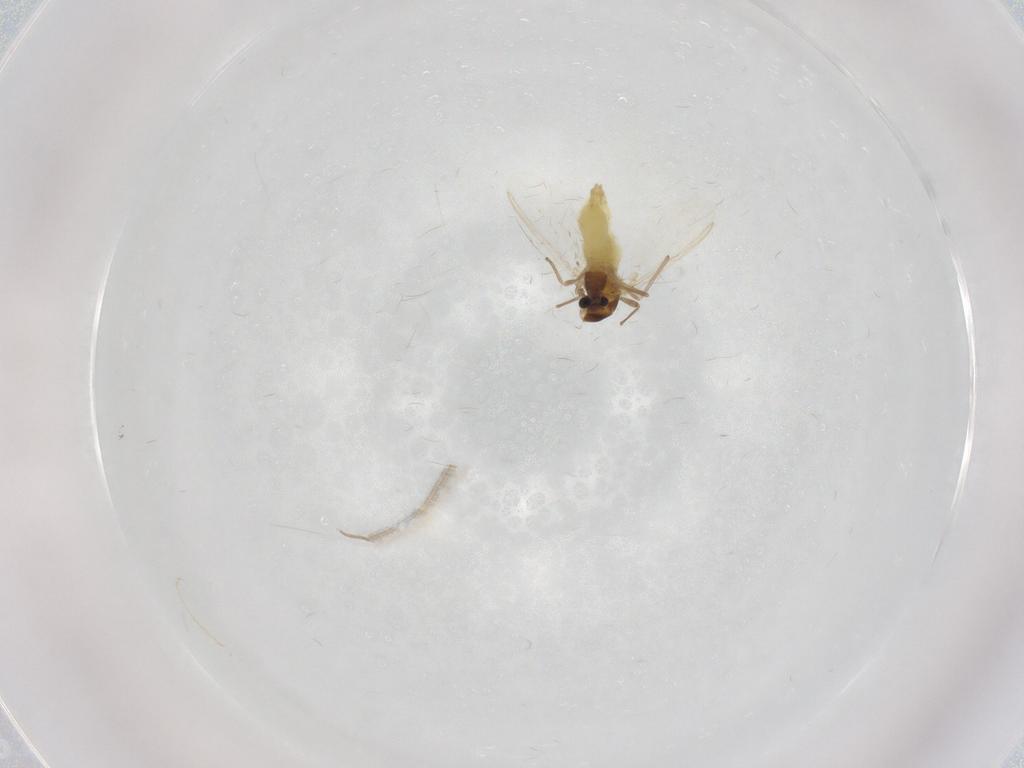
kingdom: Animalia
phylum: Arthropoda
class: Insecta
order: Diptera
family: Chironomidae
